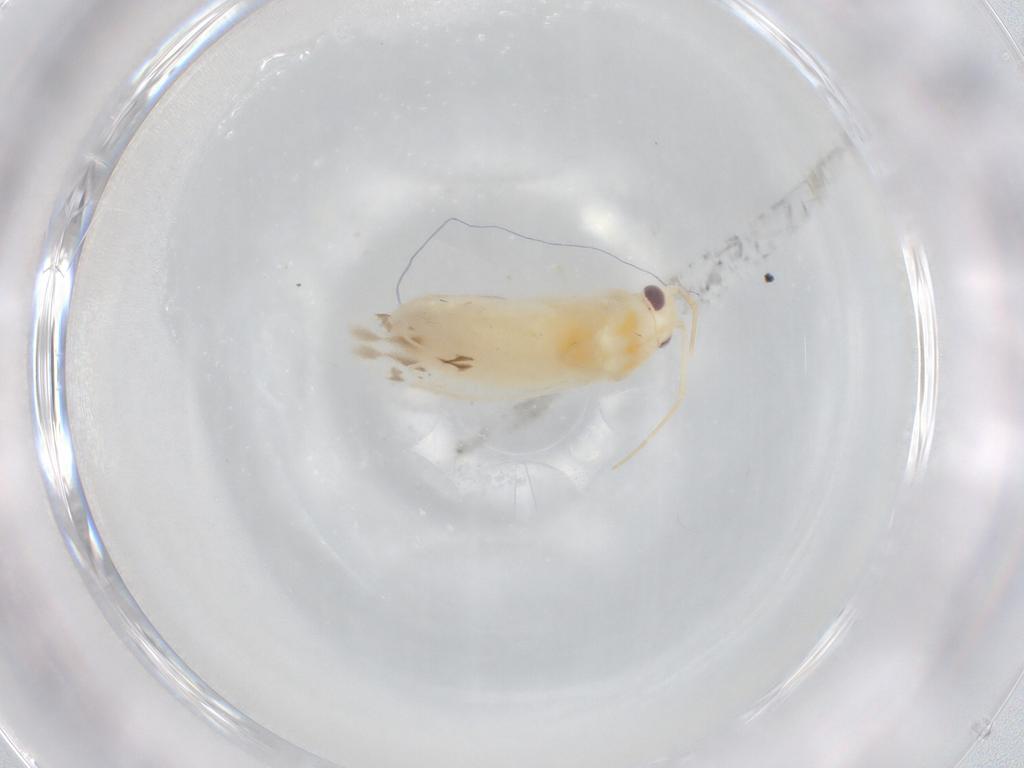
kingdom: Animalia
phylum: Arthropoda
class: Insecta
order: Hemiptera
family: Miridae
